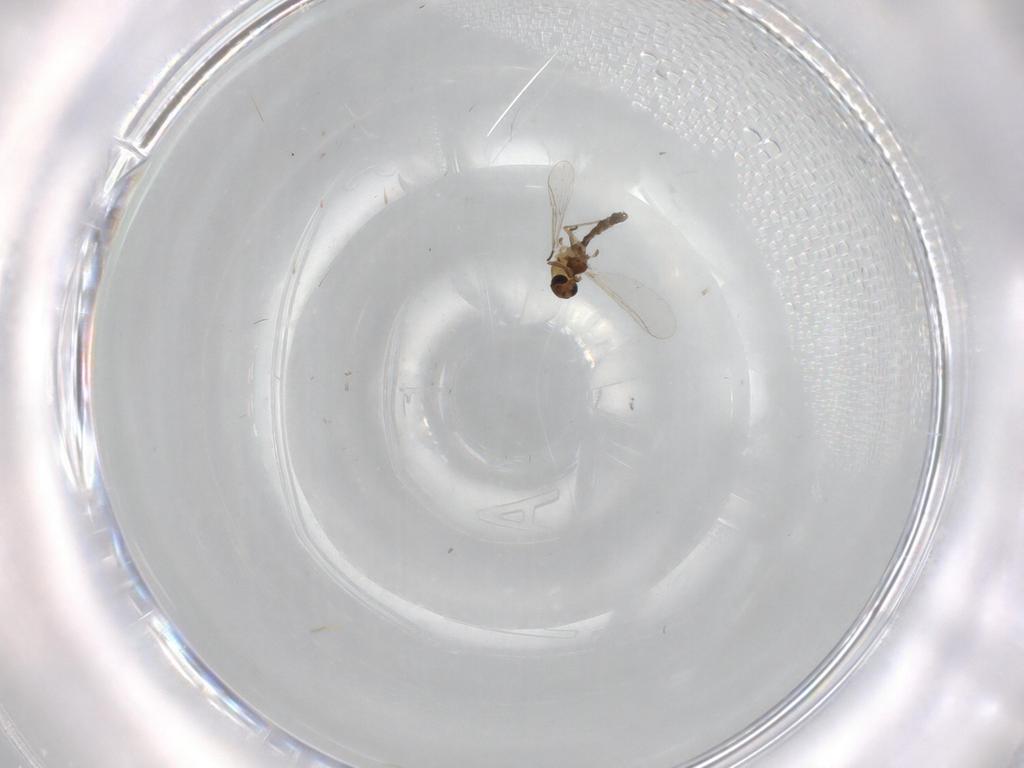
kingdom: Animalia
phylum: Arthropoda
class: Insecta
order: Diptera
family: Chironomidae
